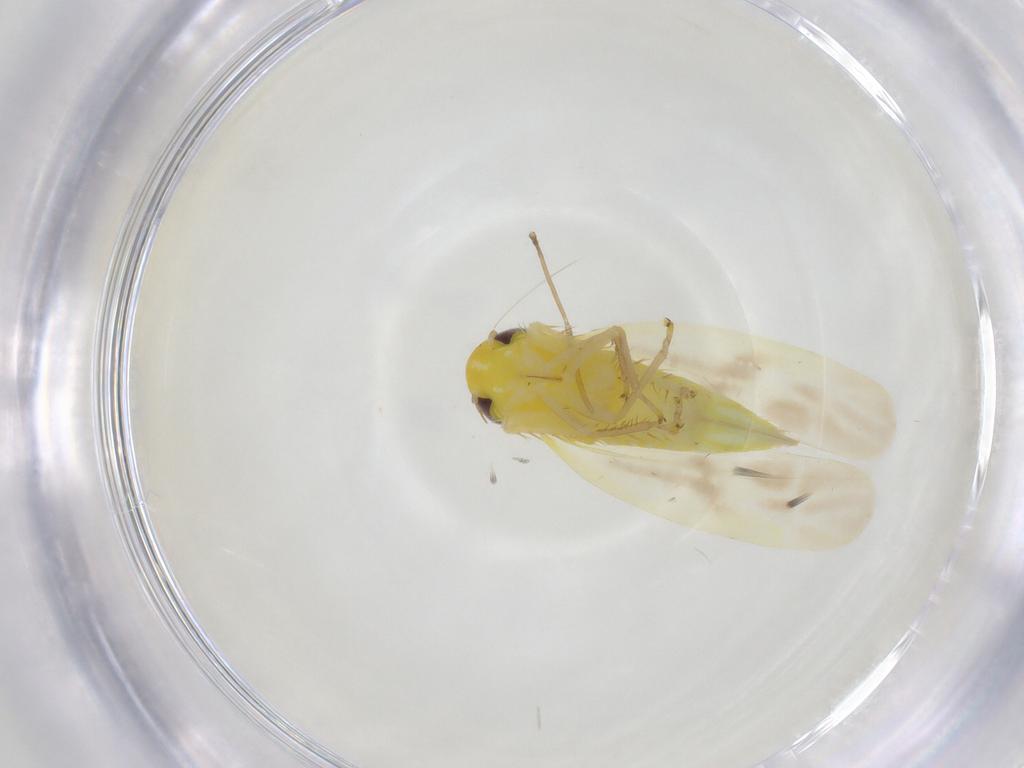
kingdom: Animalia
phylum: Arthropoda
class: Insecta
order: Hemiptera
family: Cicadellidae
